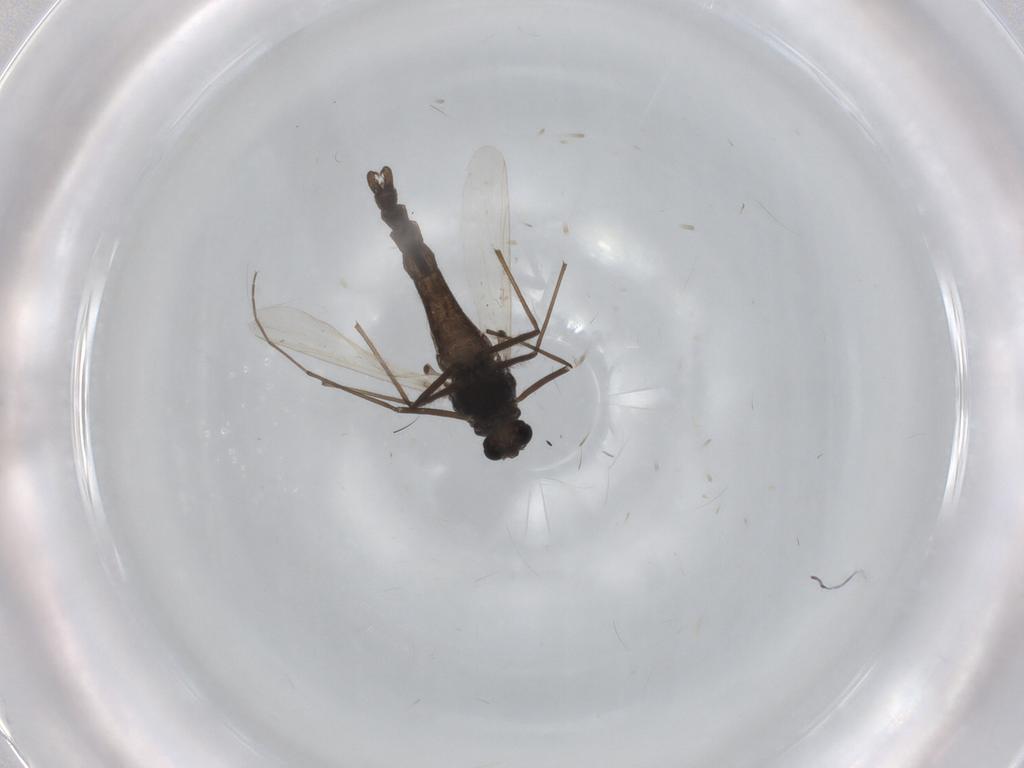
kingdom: Animalia
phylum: Arthropoda
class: Insecta
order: Diptera
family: Chironomidae
